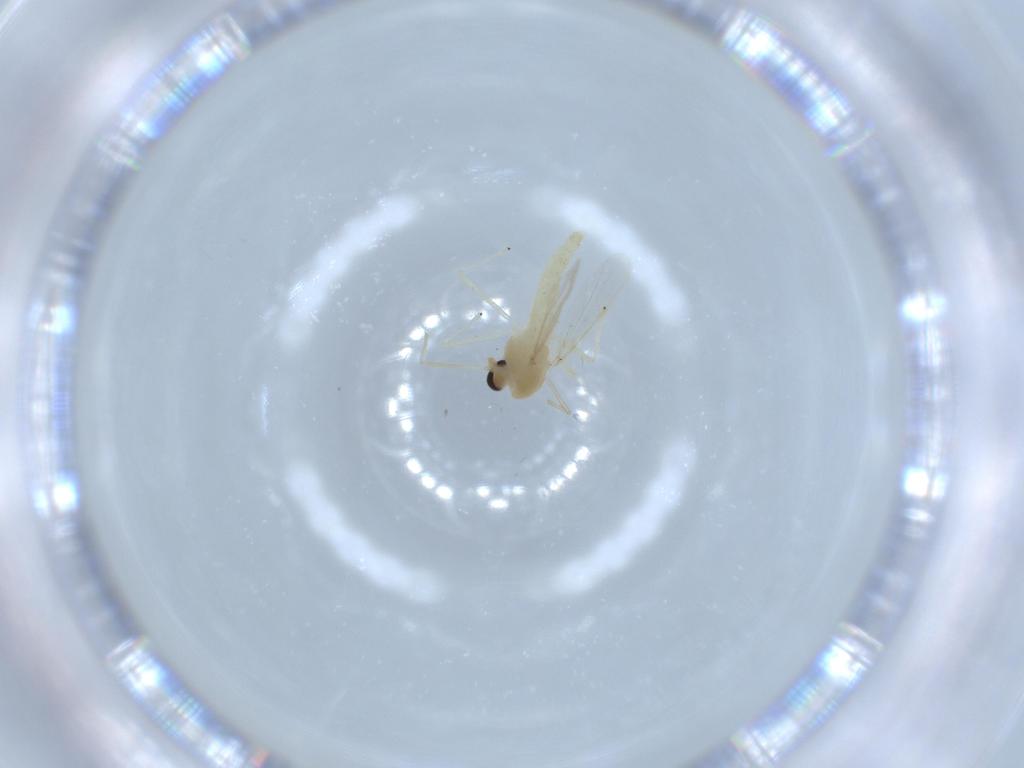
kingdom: Animalia
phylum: Arthropoda
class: Insecta
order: Diptera
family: Chironomidae
